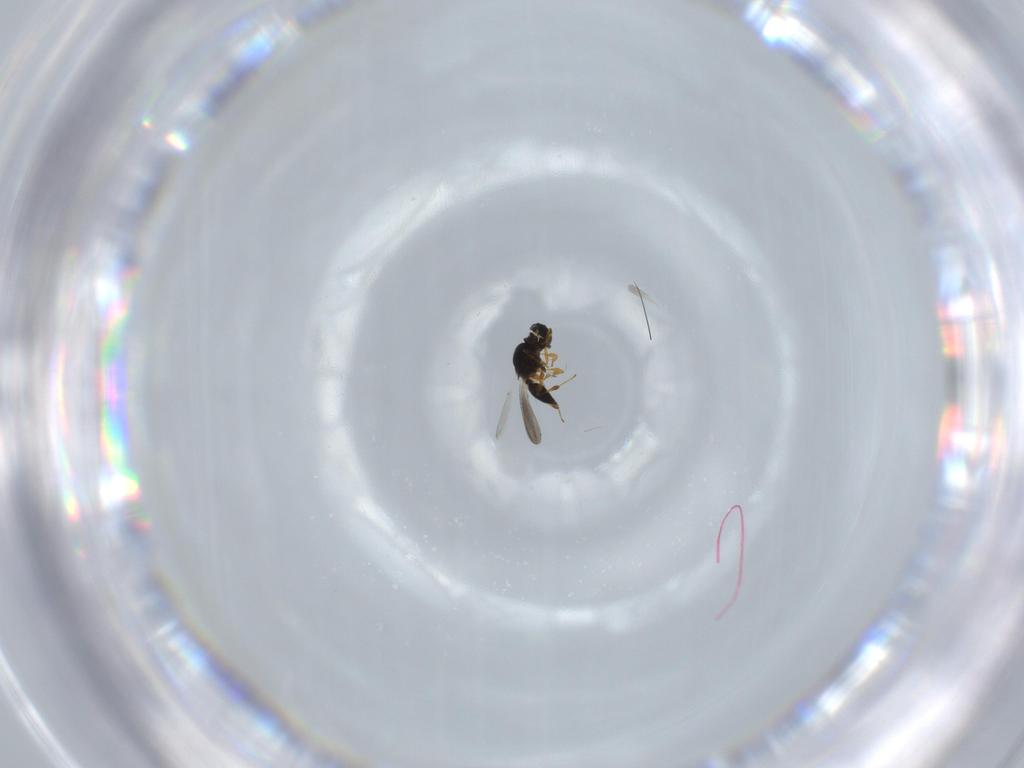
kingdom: Animalia
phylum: Arthropoda
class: Insecta
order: Hymenoptera
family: Platygastridae
